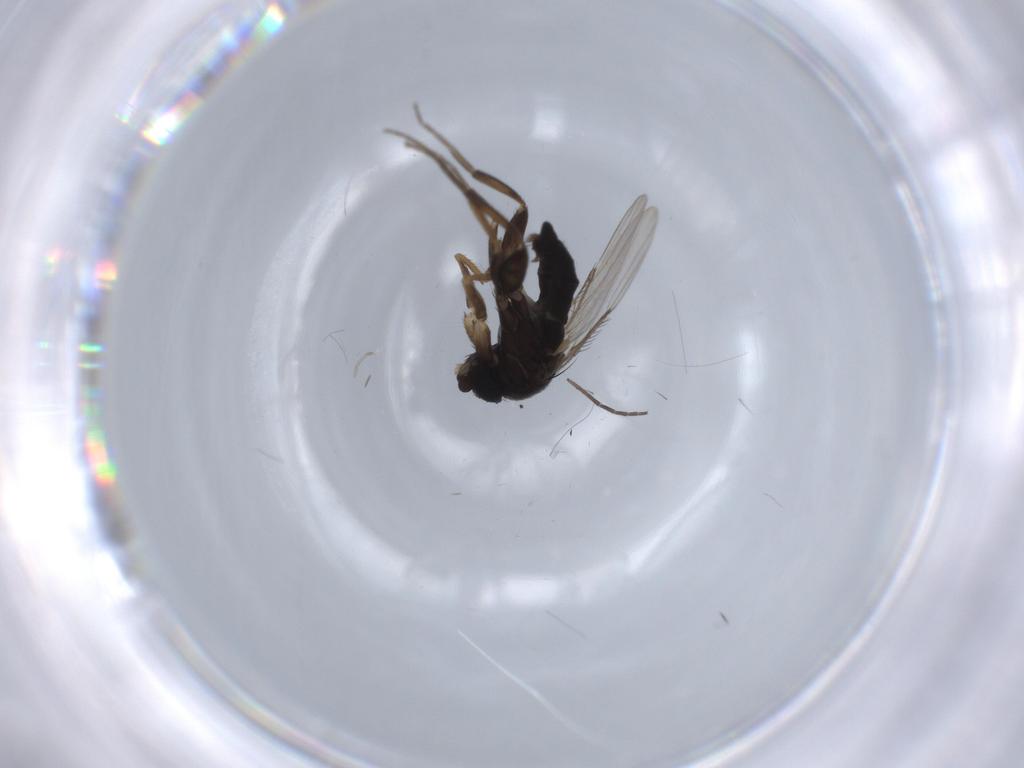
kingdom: Animalia
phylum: Arthropoda
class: Insecta
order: Diptera
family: Phoridae
